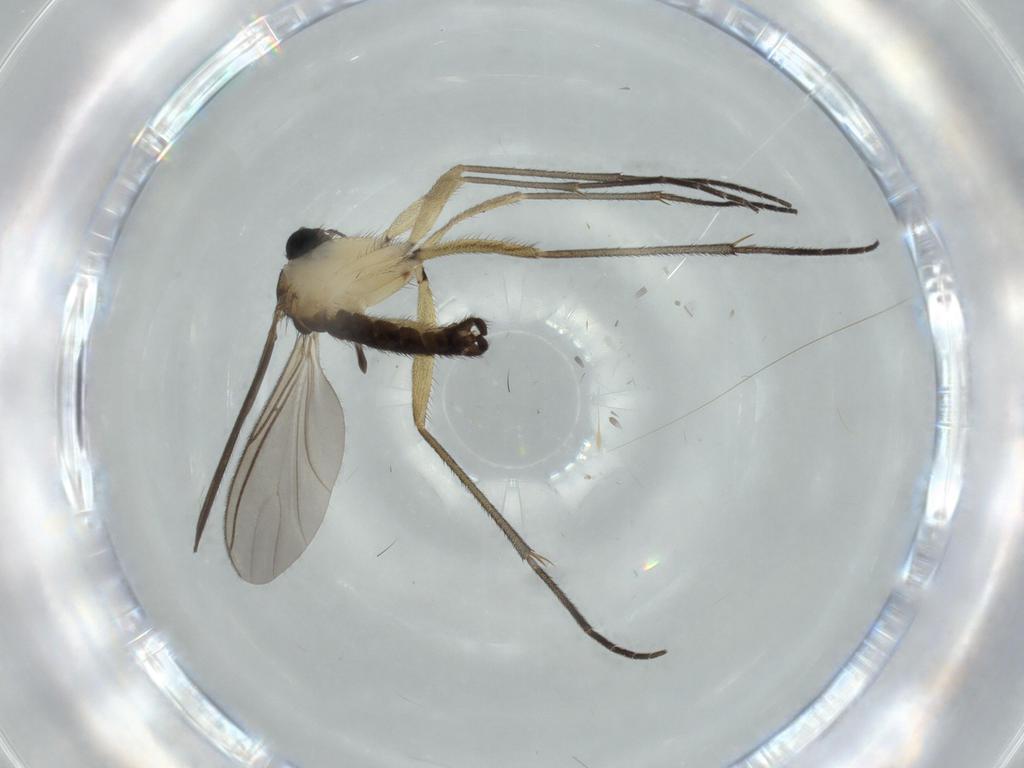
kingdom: Animalia
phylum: Arthropoda
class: Insecta
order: Diptera
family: Sciaridae
